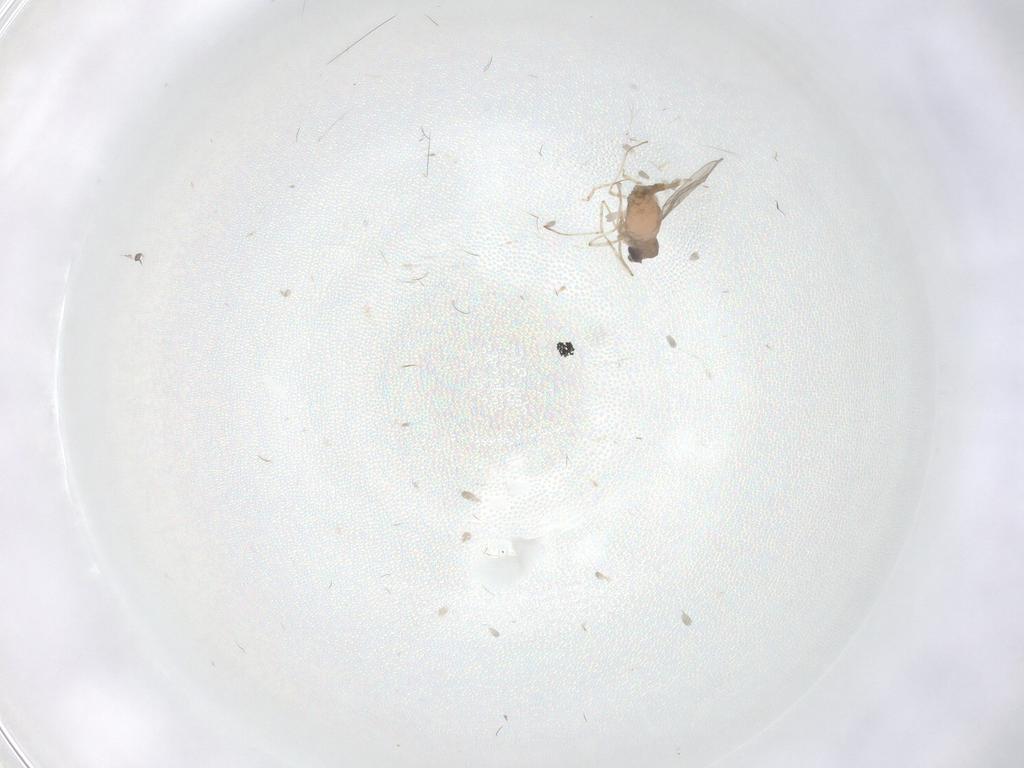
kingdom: Animalia
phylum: Arthropoda
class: Insecta
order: Diptera
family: Cecidomyiidae
